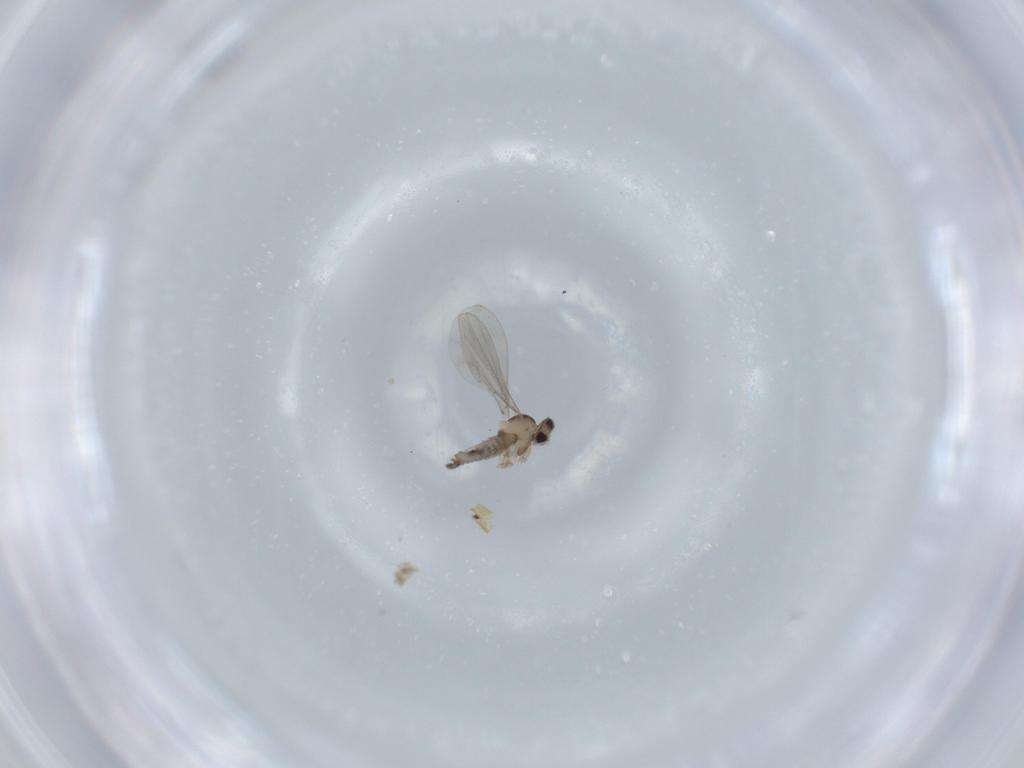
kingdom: Animalia
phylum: Arthropoda
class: Insecta
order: Diptera
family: Cecidomyiidae
